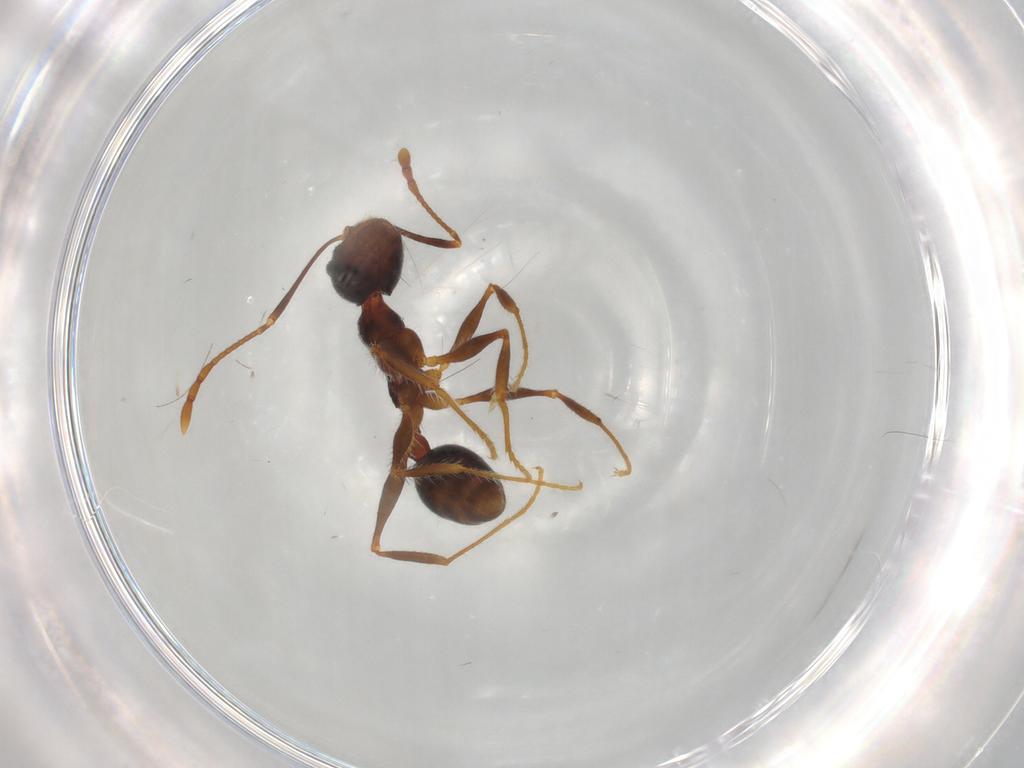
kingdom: Animalia
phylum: Arthropoda
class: Insecta
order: Hymenoptera
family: Formicidae
